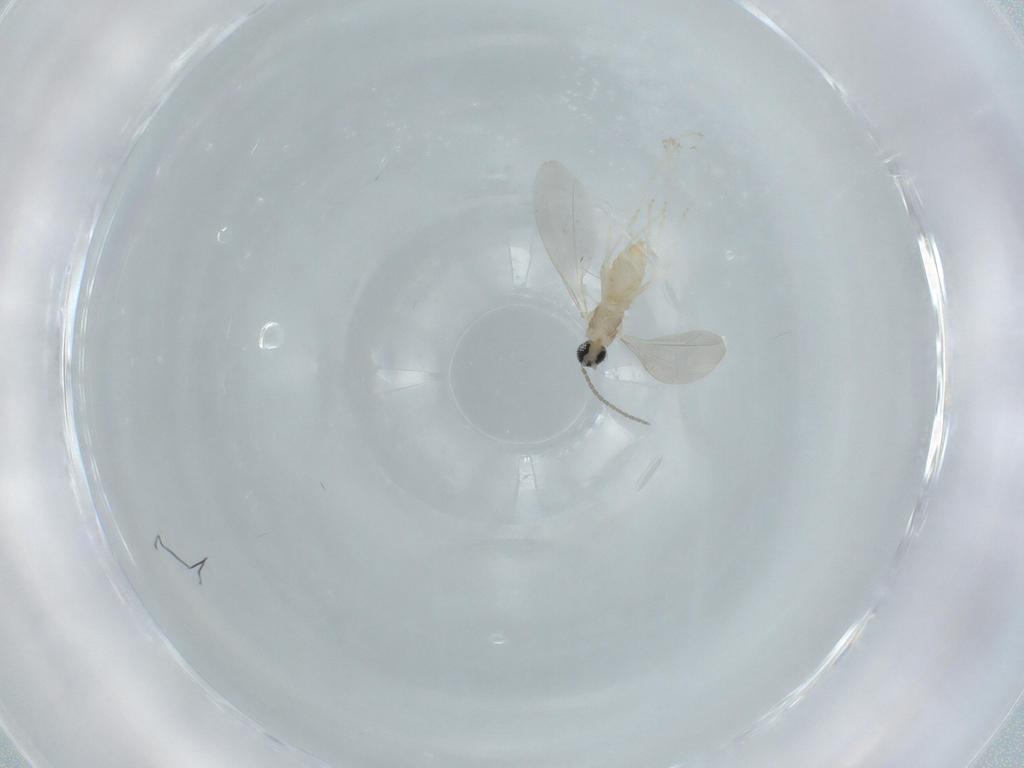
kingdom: Animalia
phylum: Arthropoda
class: Insecta
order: Diptera
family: Cecidomyiidae
